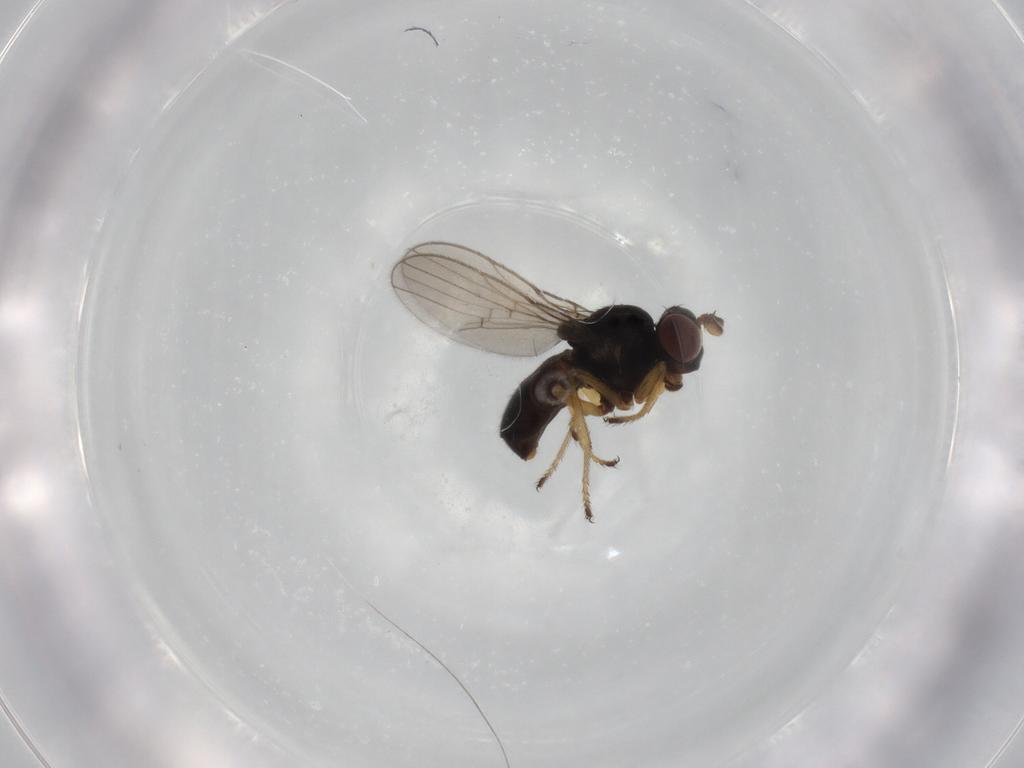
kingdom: Animalia
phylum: Arthropoda
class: Insecta
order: Diptera
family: Ephydridae
